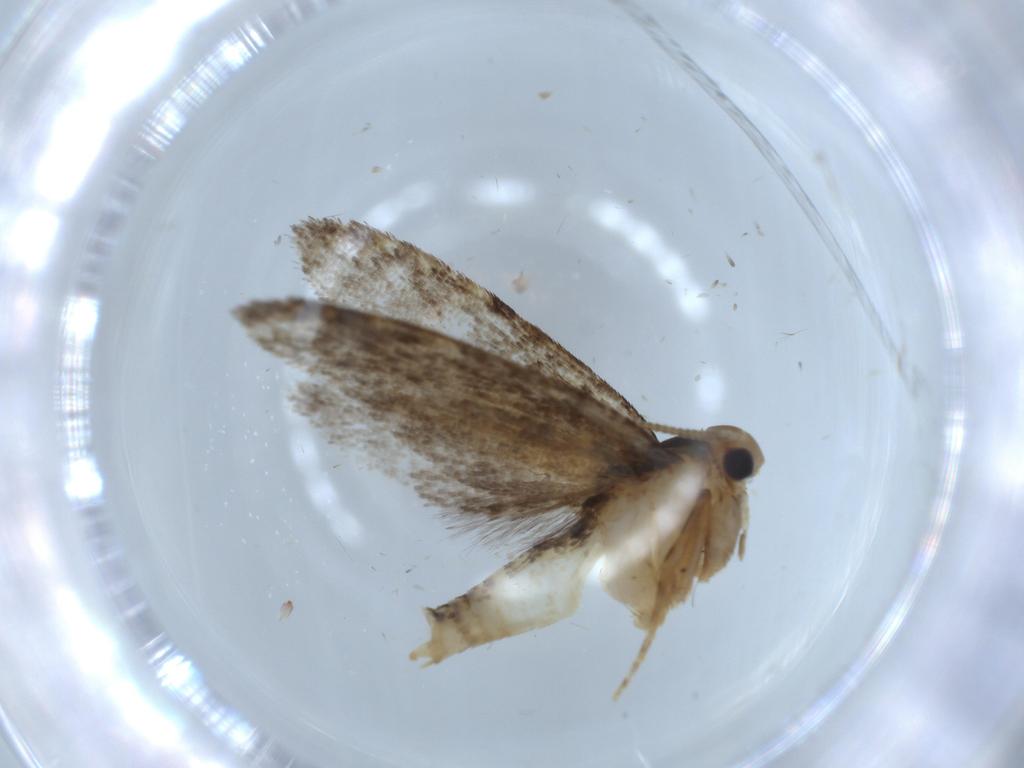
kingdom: Animalia
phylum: Arthropoda
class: Insecta
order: Lepidoptera
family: Tineidae
